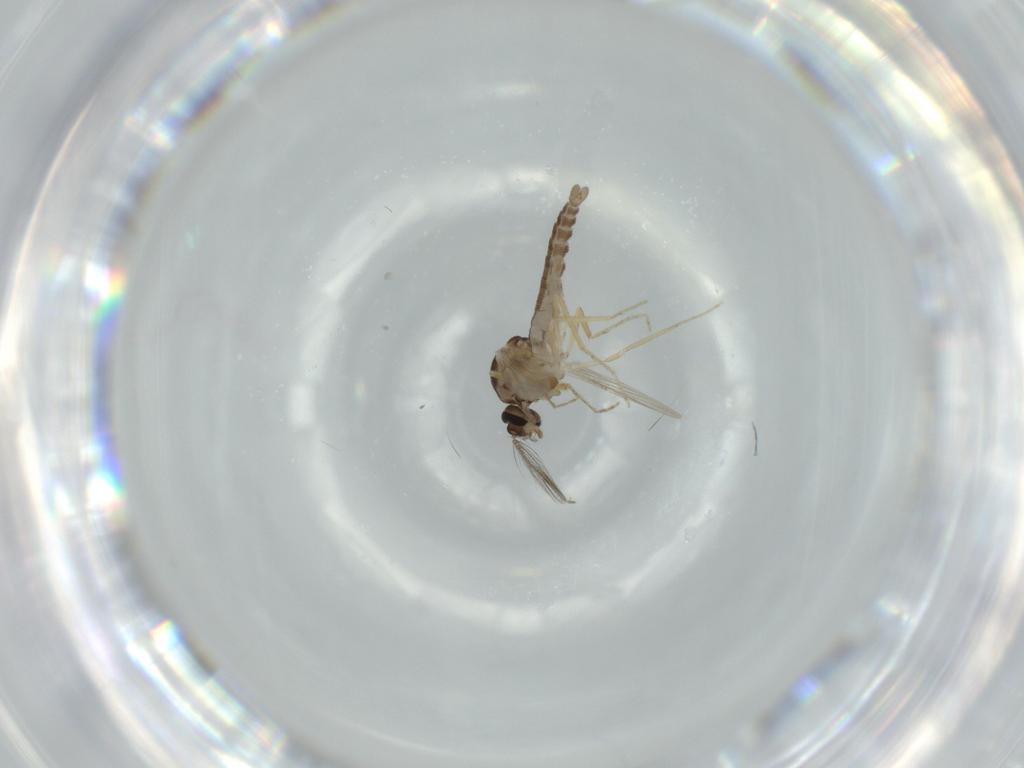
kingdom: Animalia
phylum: Arthropoda
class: Insecta
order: Diptera
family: Ceratopogonidae
